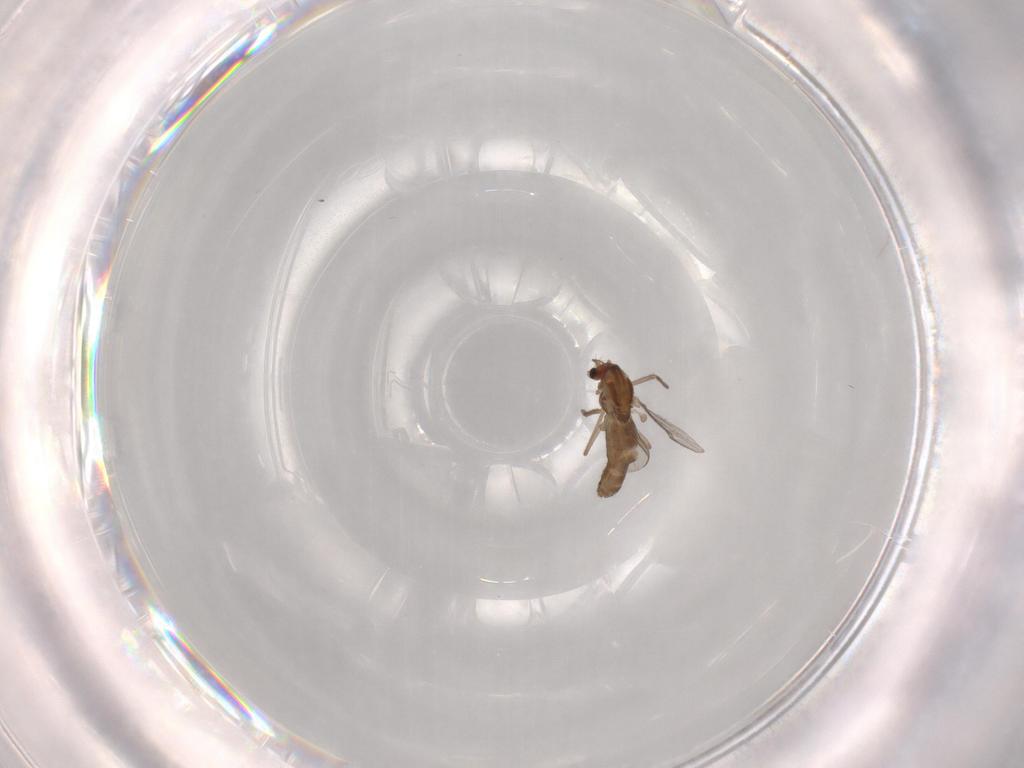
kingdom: Animalia
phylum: Arthropoda
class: Insecta
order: Diptera
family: Chironomidae
